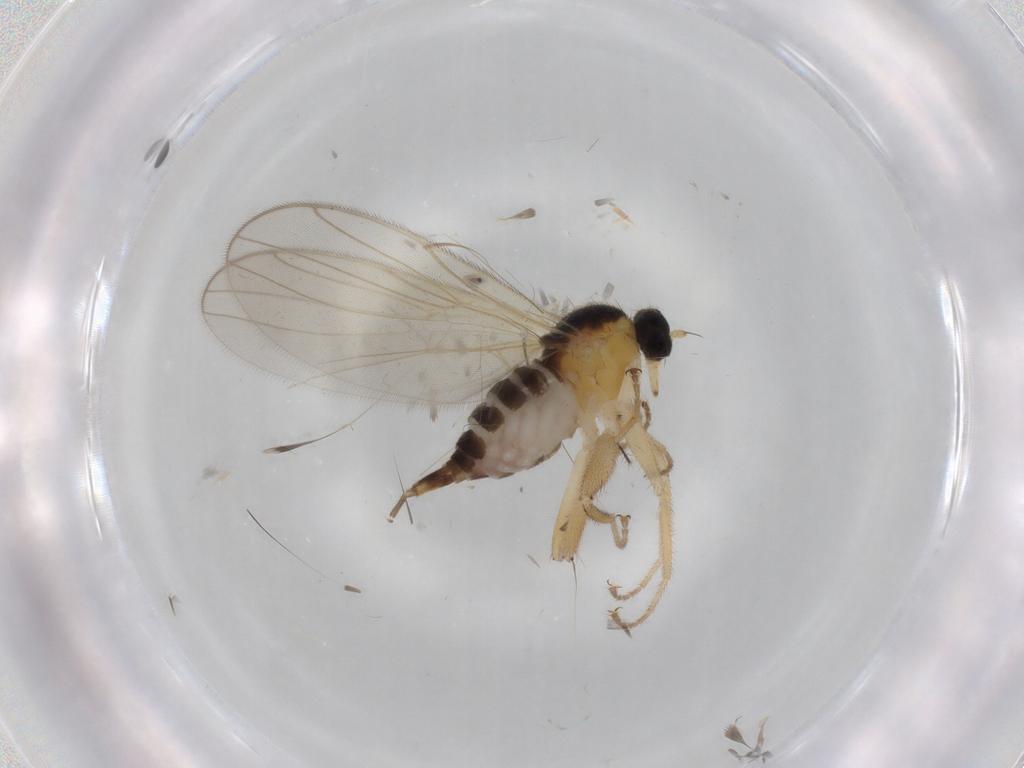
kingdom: Animalia
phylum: Arthropoda
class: Insecta
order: Diptera
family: Hybotidae
